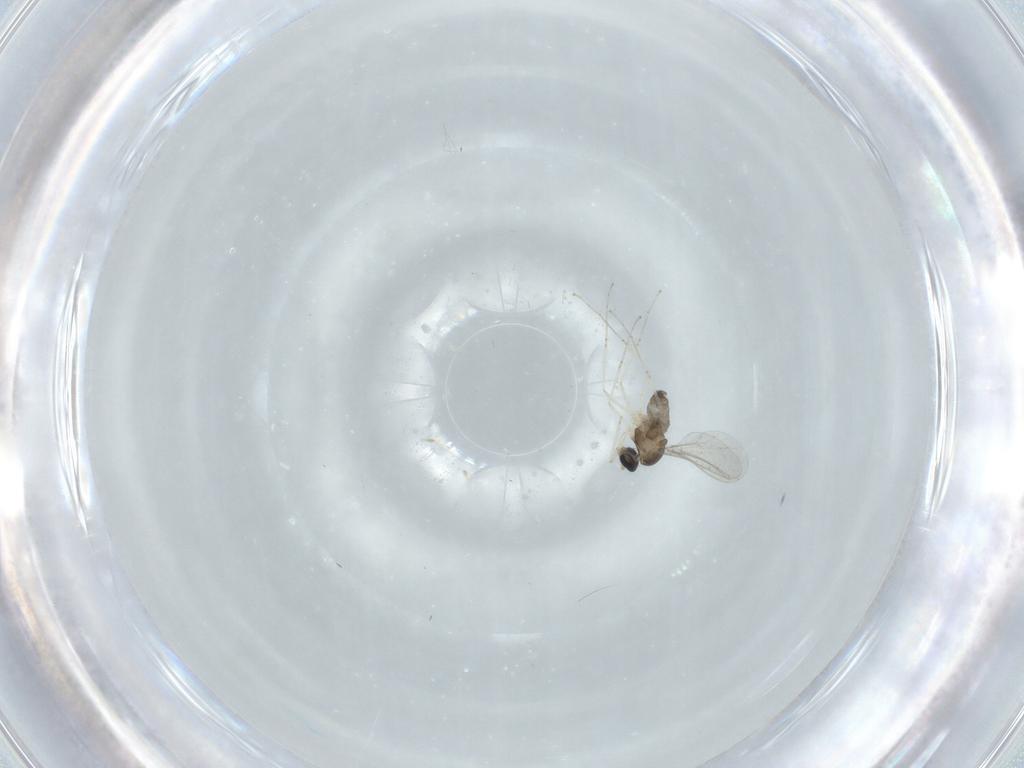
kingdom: Animalia
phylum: Arthropoda
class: Insecta
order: Diptera
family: Cecidomyiidae
